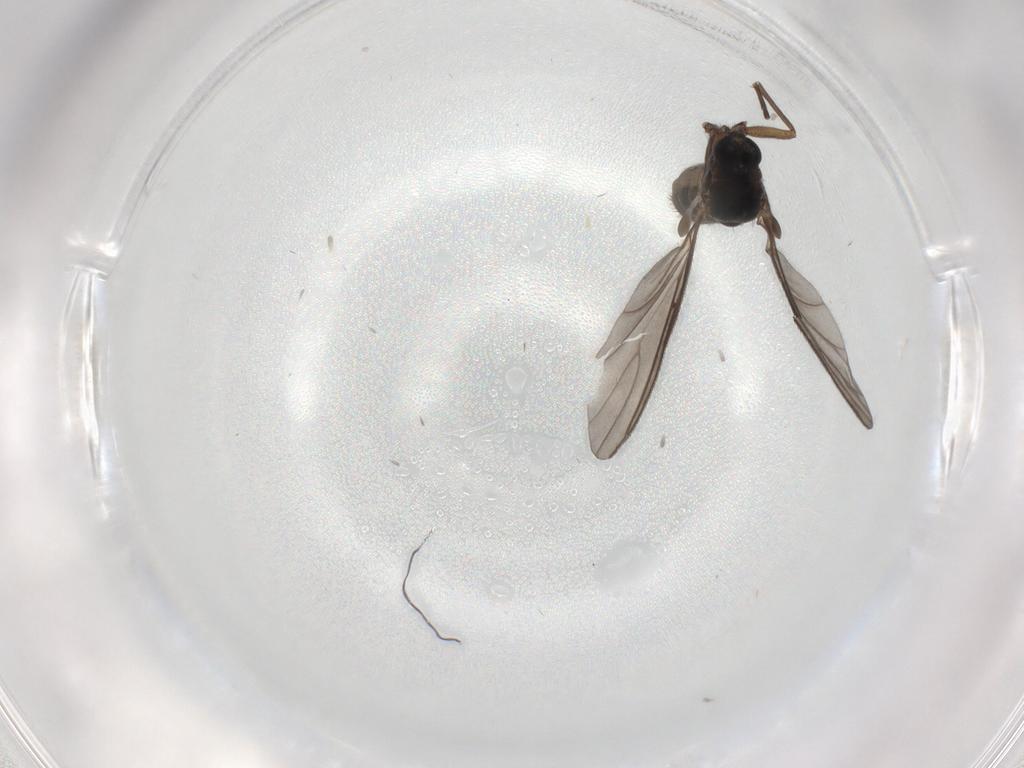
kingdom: Animalia
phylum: Arthropoda
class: Insecta
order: Diptera
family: Sciaridae
